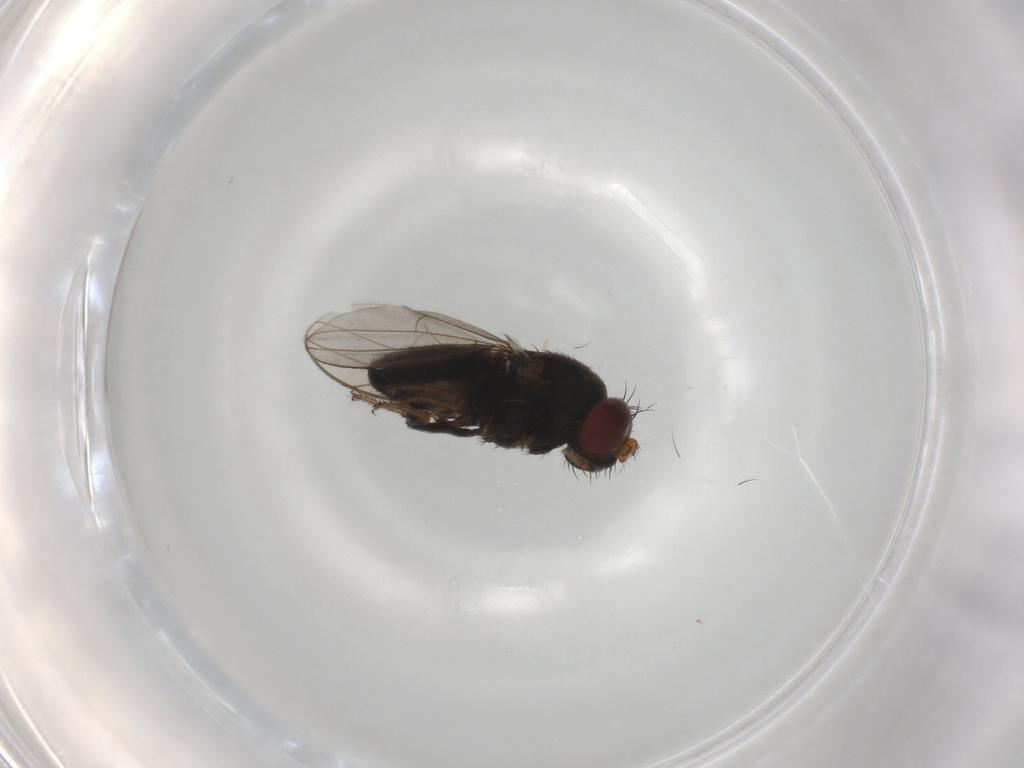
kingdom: Animalia
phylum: Arthropoda
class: Insecta
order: Diptera
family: Ephydridae
